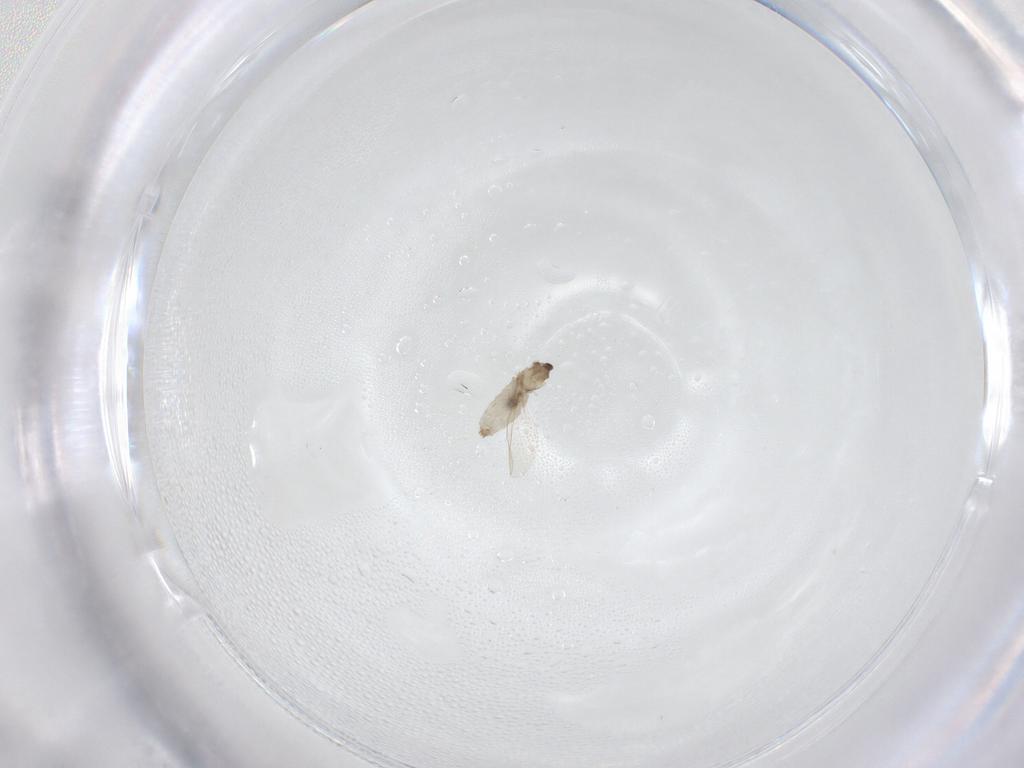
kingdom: Animalia
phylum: Arthropoda
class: Insecta
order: Diptera
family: Cecidomyiidae
